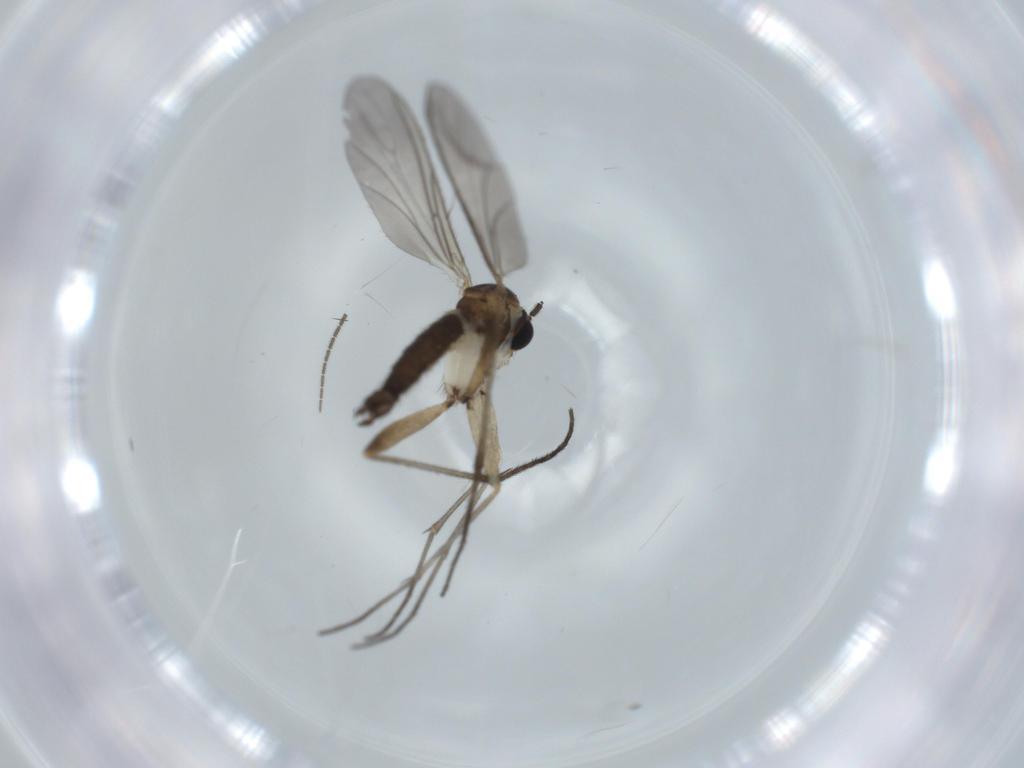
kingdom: Animalia
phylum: Arthropoda
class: Insecta
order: Diptera
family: Sciaridae
